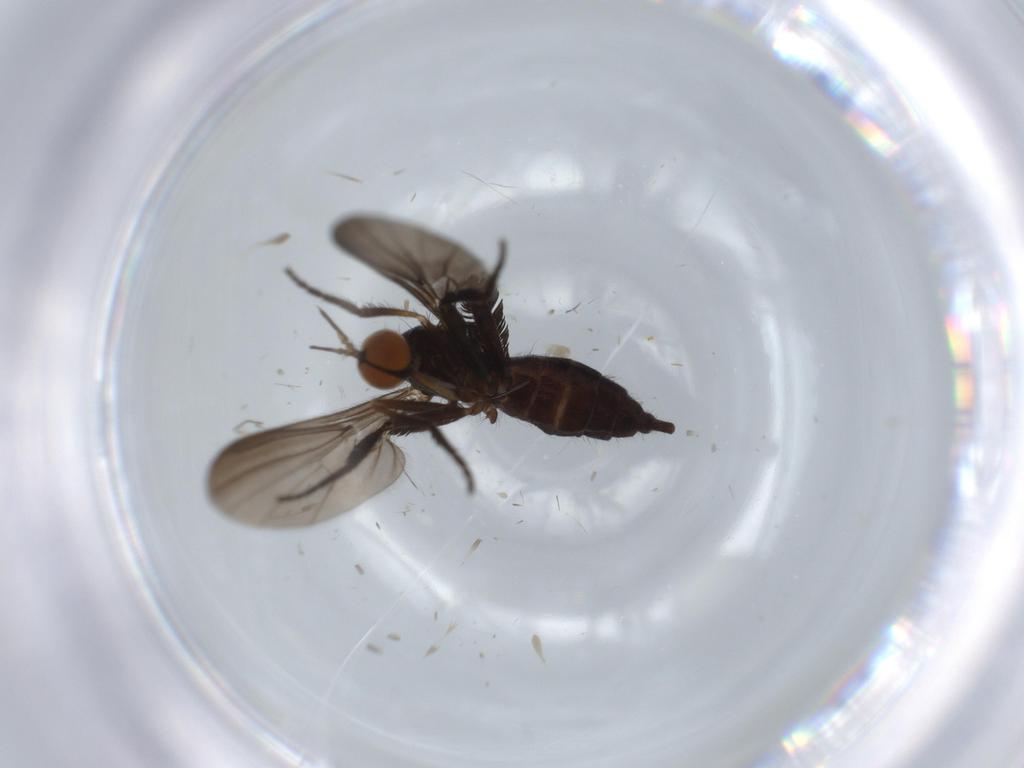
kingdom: Animalia
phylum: Arthropoda
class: Insecta
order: Diptera
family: Empididae
